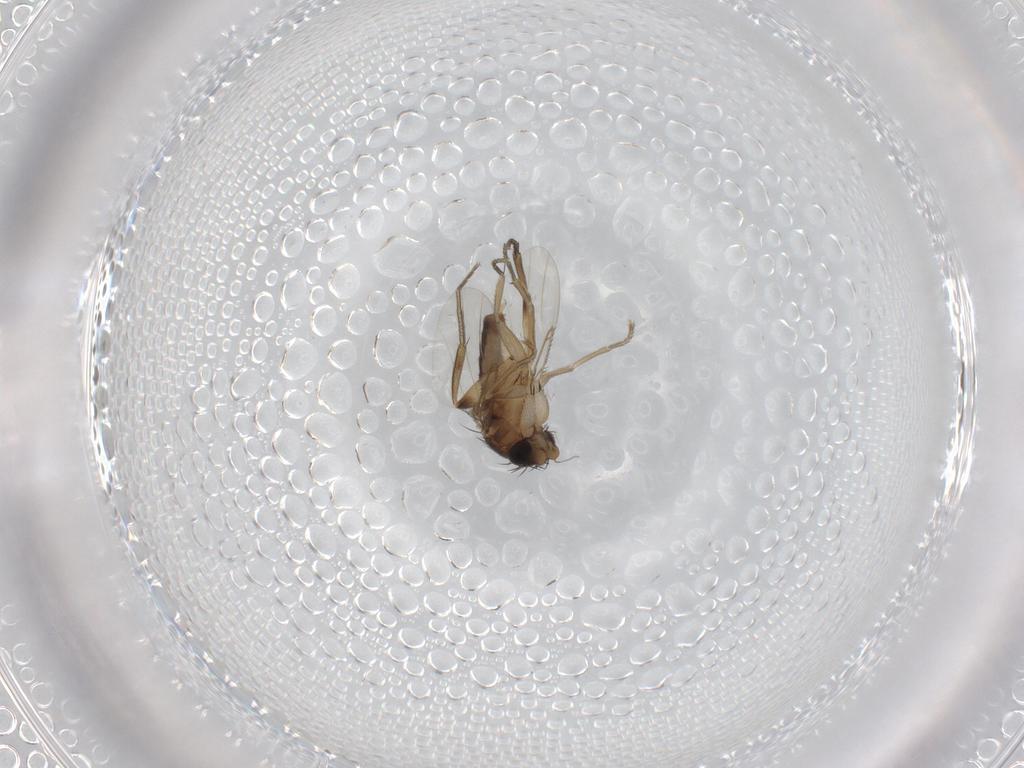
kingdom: Animalia
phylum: Arthropoda
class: Insecta
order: Diptera
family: Phoridae
